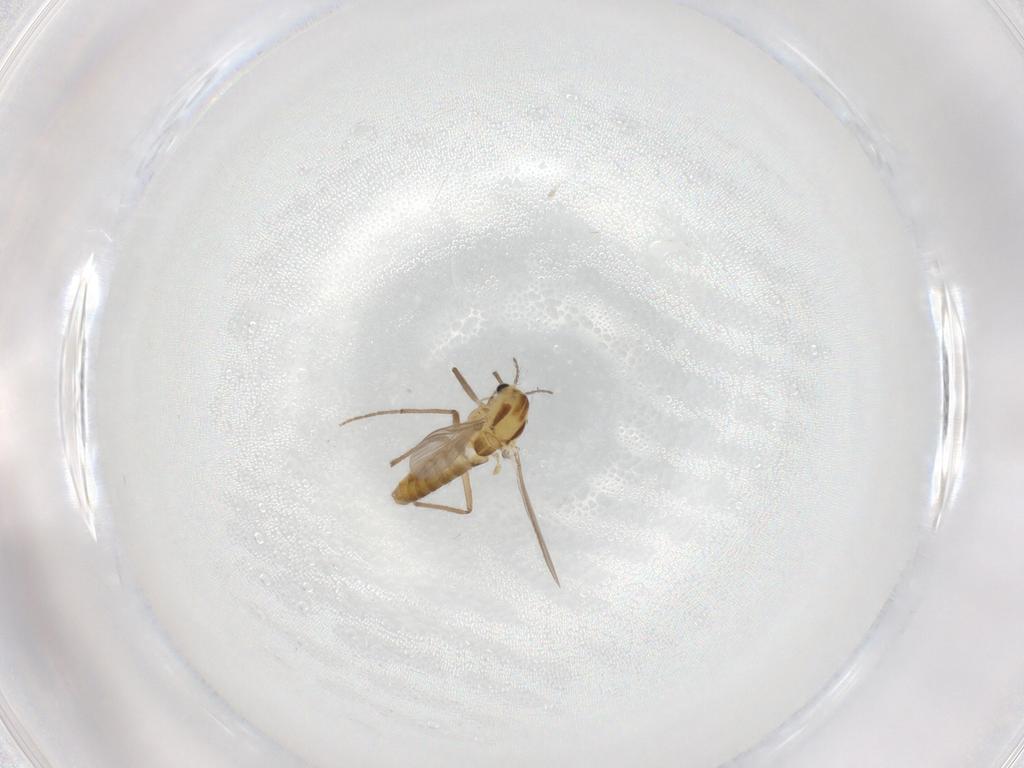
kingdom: Animalia
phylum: Arthropoda
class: Insecta
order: Diptera
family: Chironomidae
